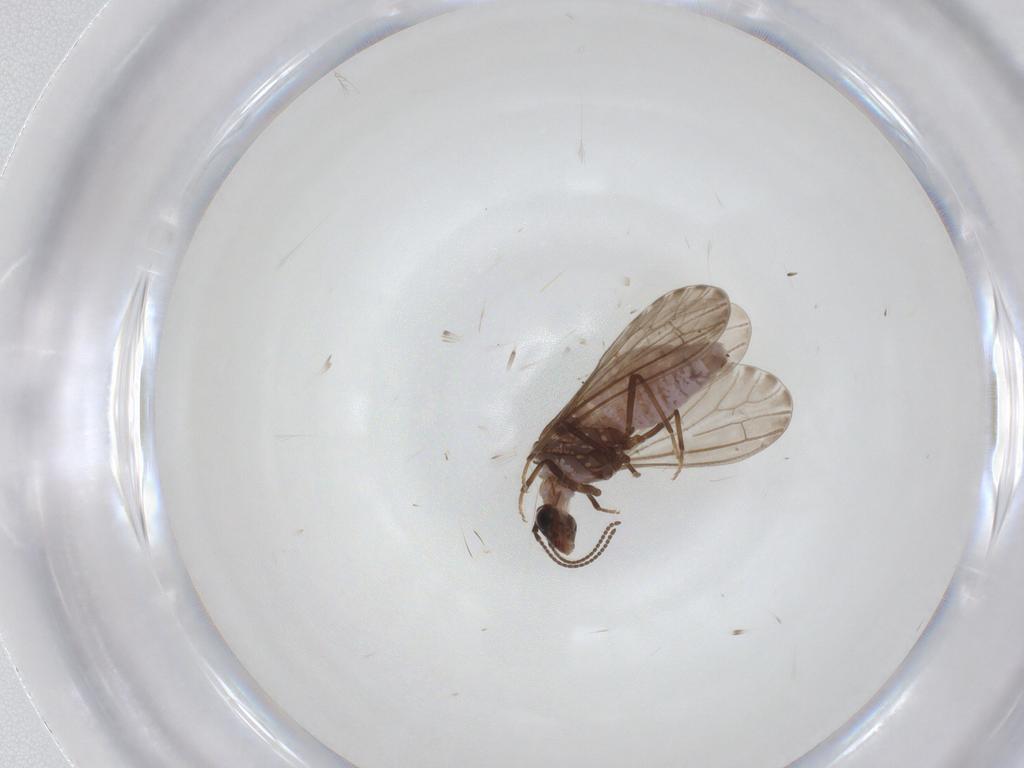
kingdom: Animalia
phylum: Arthropoda
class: Insecta
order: Neuroptera
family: Coniopterygidae
